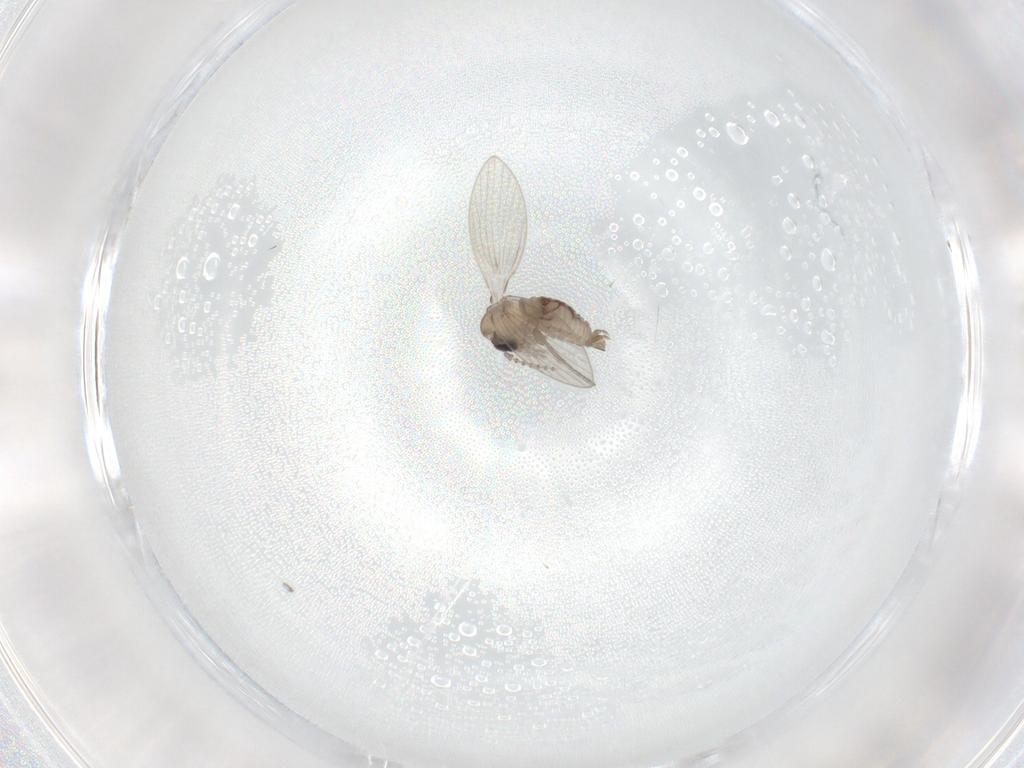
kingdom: Animalia
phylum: Arthropoda
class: Insecta
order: Diptera
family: Psychodidae
